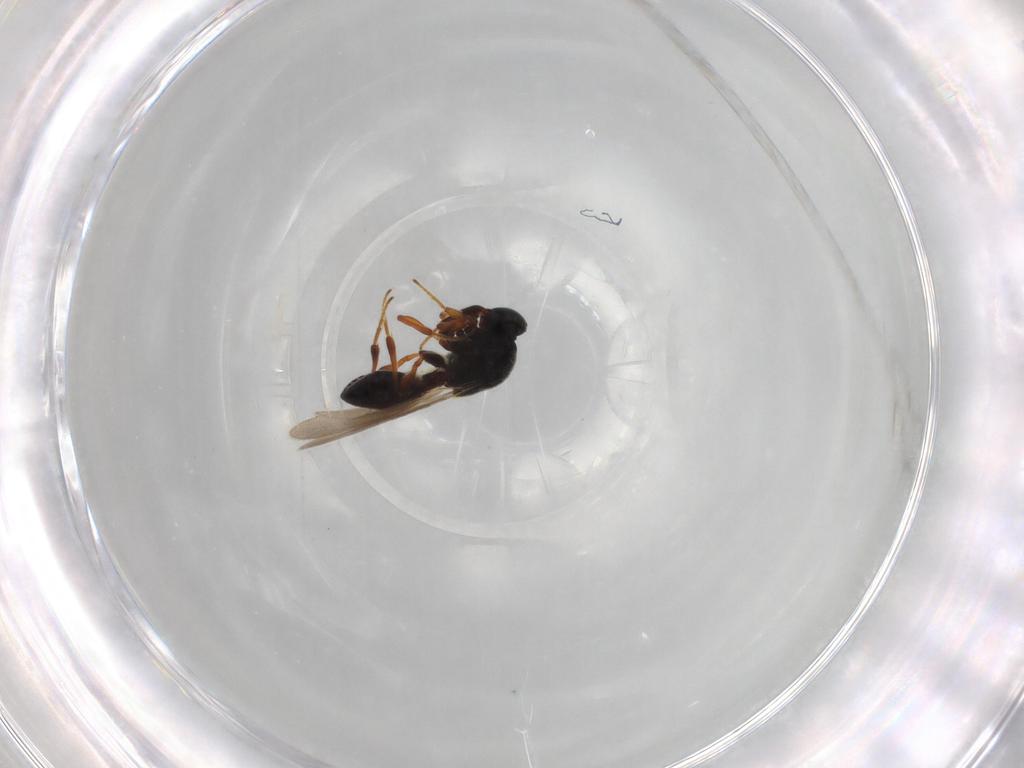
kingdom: Animalia
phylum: Arthropoda
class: Insecta
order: Hymenoptera
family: Platygastridae
